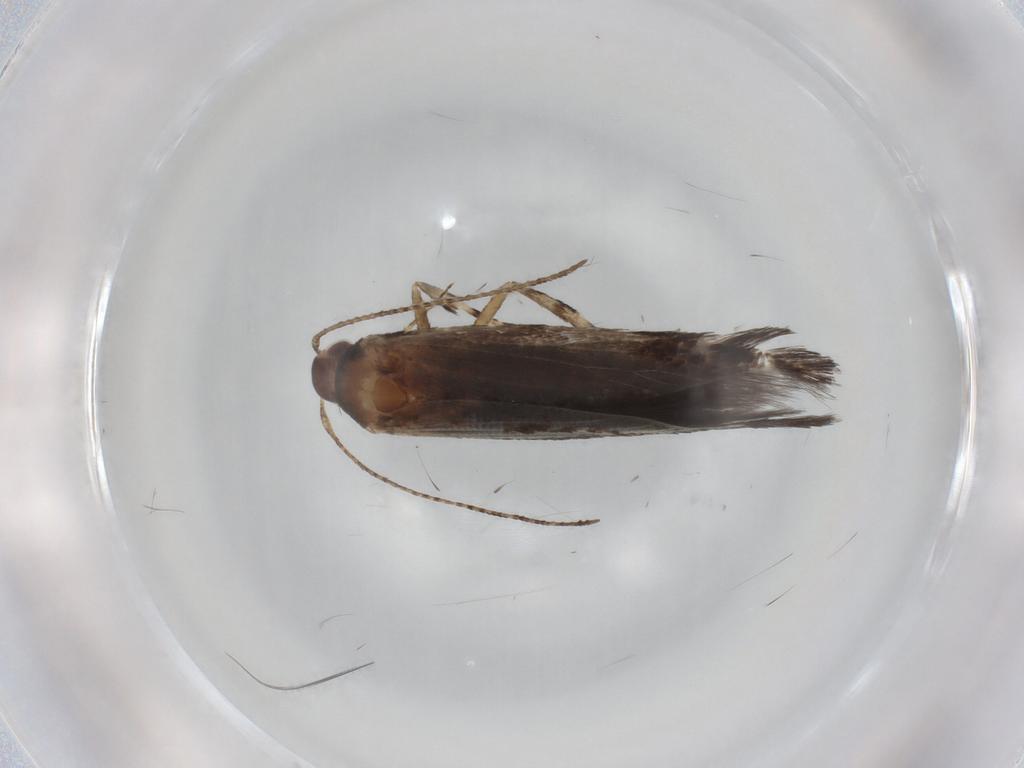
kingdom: Animalia
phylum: Arthropoda
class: Insecta
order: Lepidoptera
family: Cosmopterigidae
